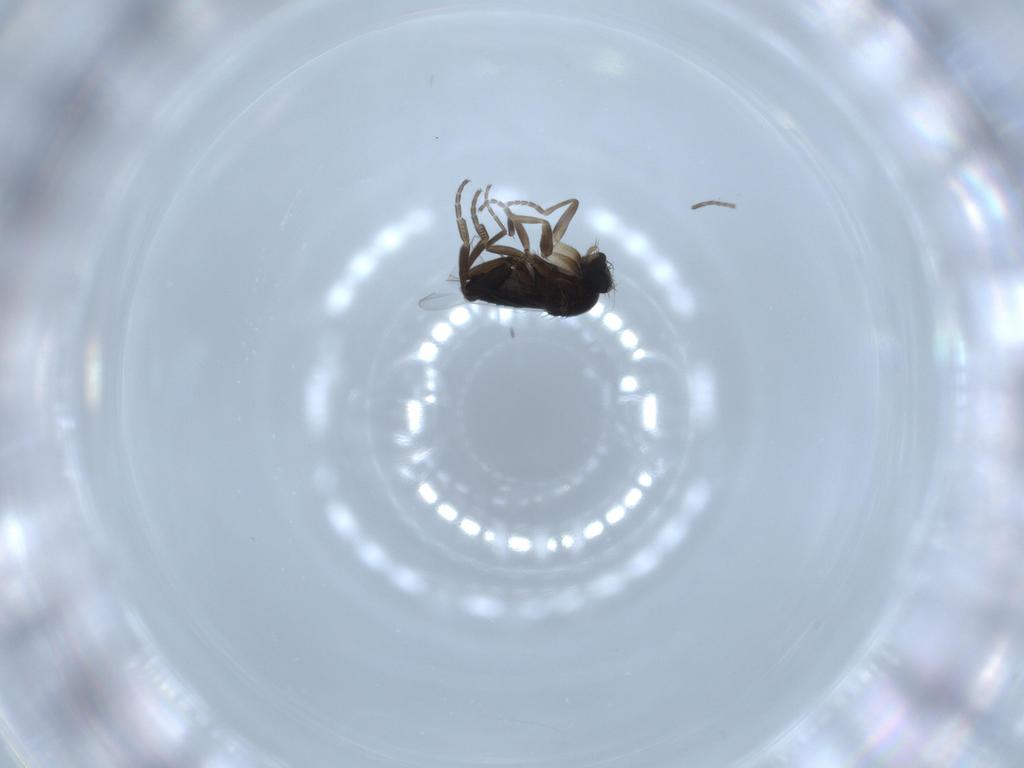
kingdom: Animalia
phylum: Arthropoda
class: Insecta
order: Diptera
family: Phoridae
